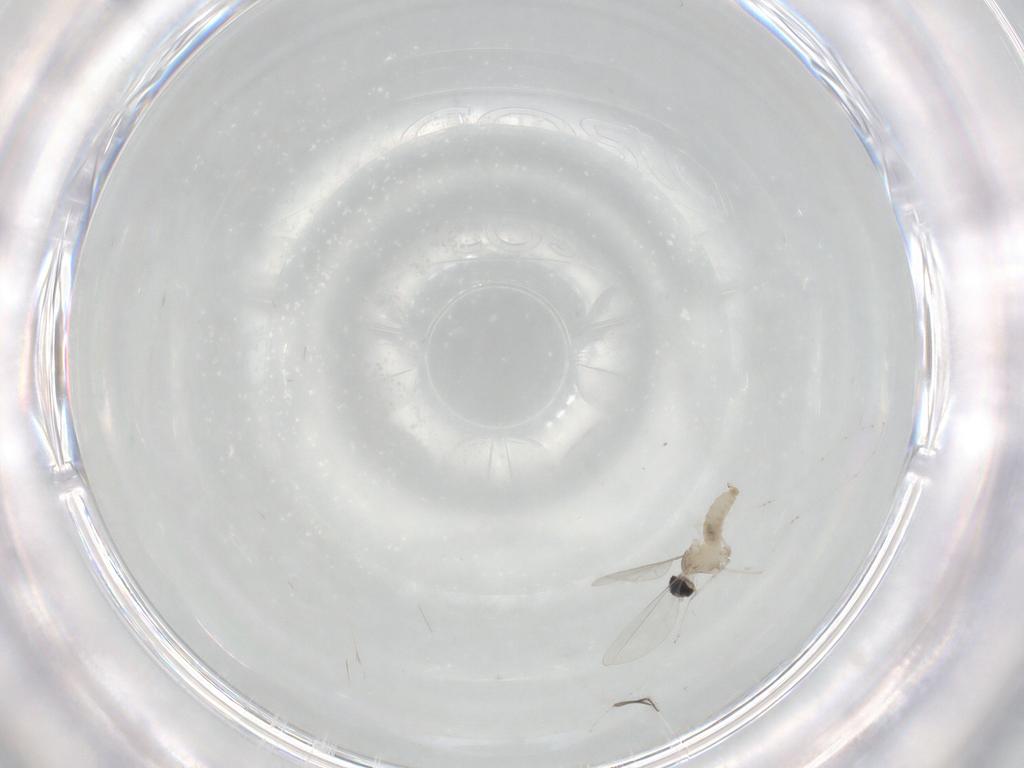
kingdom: Animalia
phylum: Arthropoda
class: Insecta
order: Diptera
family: Cecidomyiidae
